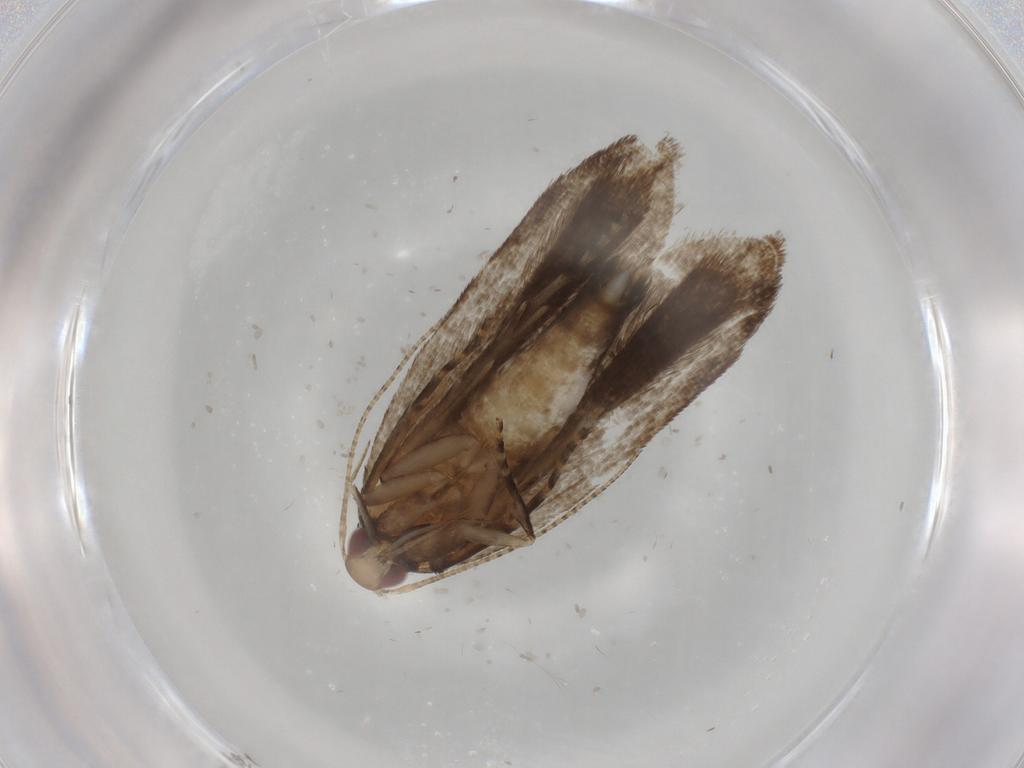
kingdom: Animalia
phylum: Arthropoda
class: Insecta
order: Lepidoptera
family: Gelechiidae
